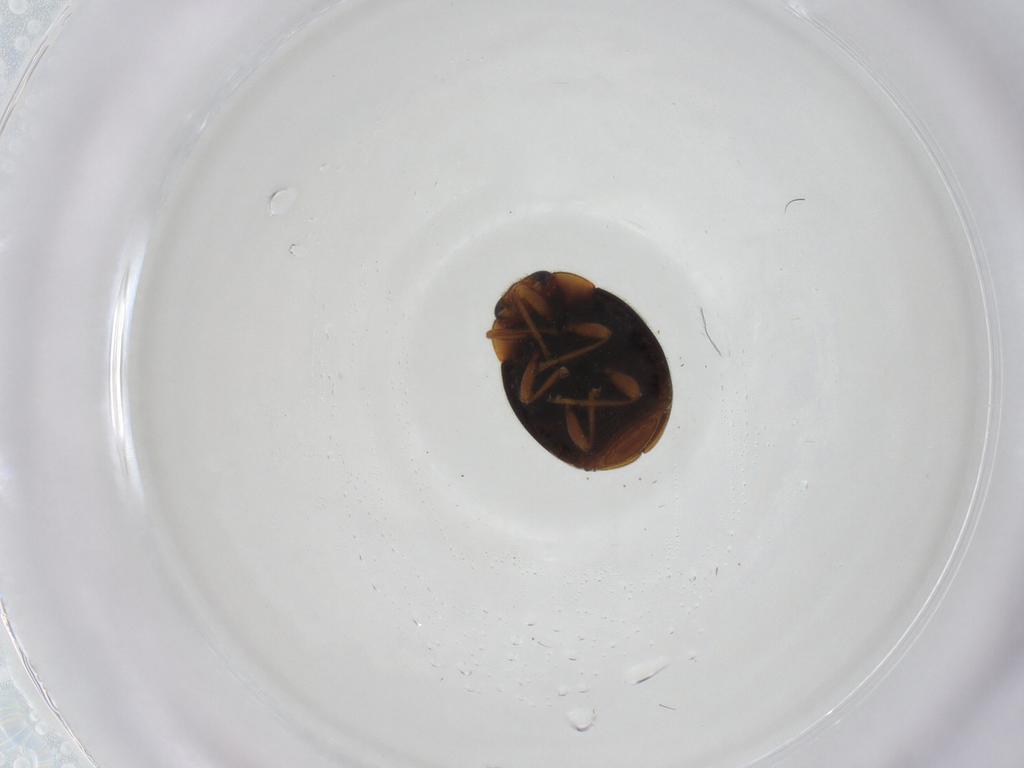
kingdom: Animalia
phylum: Arthropoda
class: Insecta
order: Coleoptera
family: Coccinellidae
